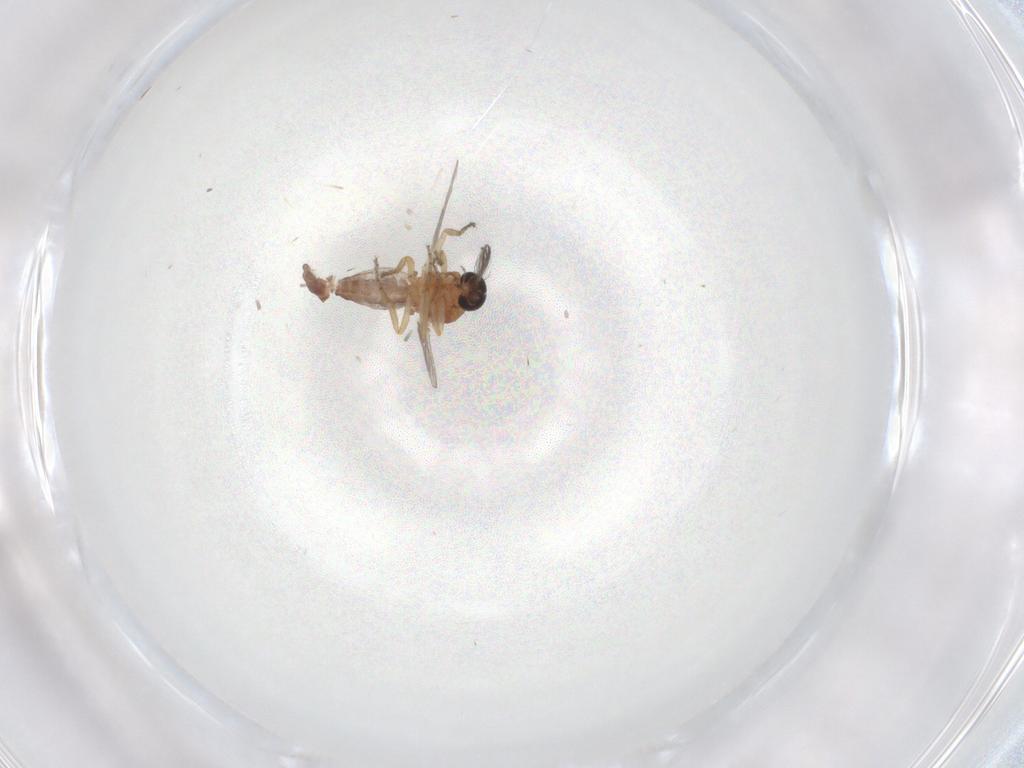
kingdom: Animalia
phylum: Arthropoda
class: Insecta
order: Diptera
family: Ceratopogonidae
